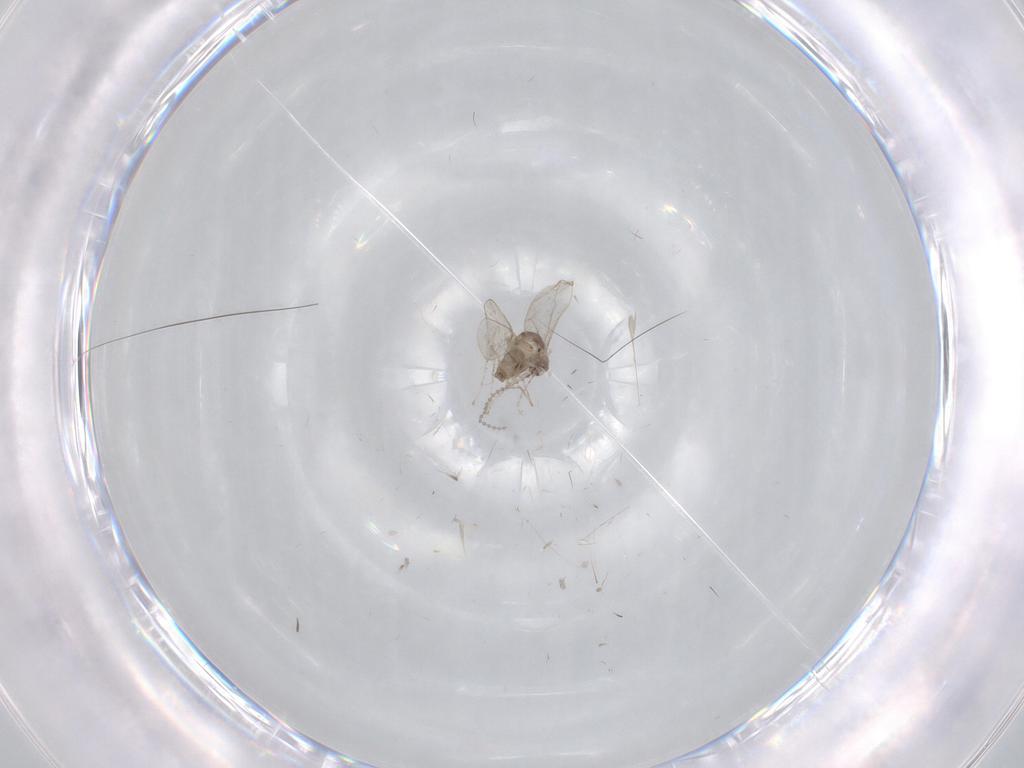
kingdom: Animalia
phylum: Arthropoda
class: Insecta
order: Diptera
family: Cecidomyiidae
